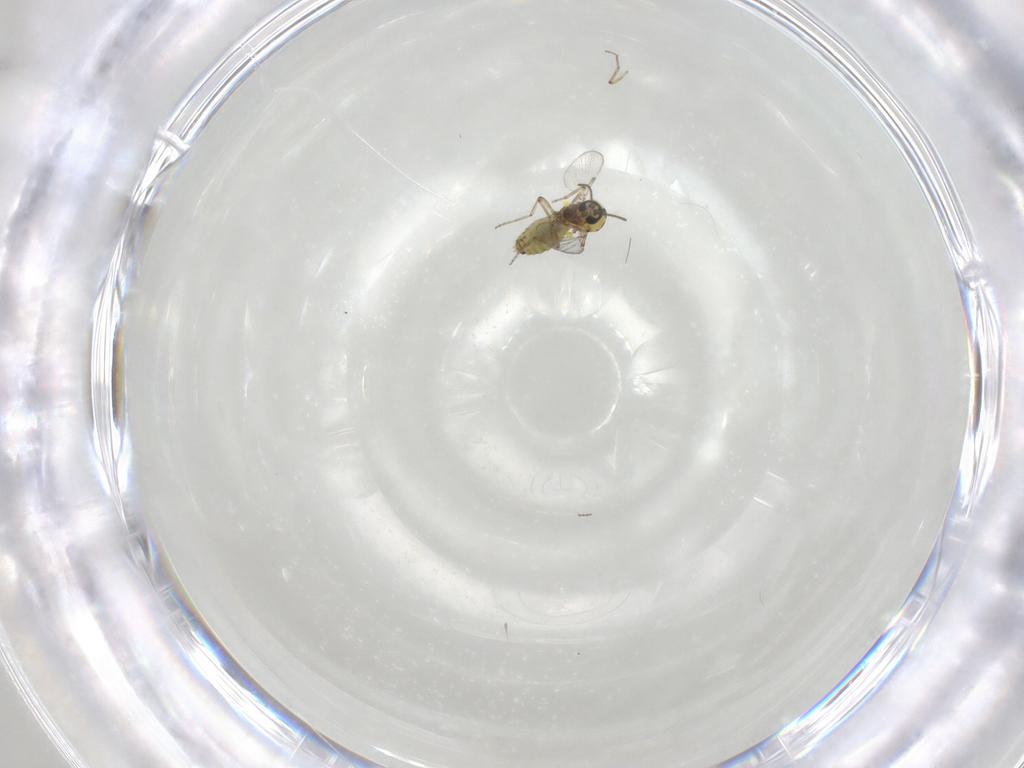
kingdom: Animalia
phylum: Arthropoda
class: Insecta
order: Diptera
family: Ceratopogonidae
